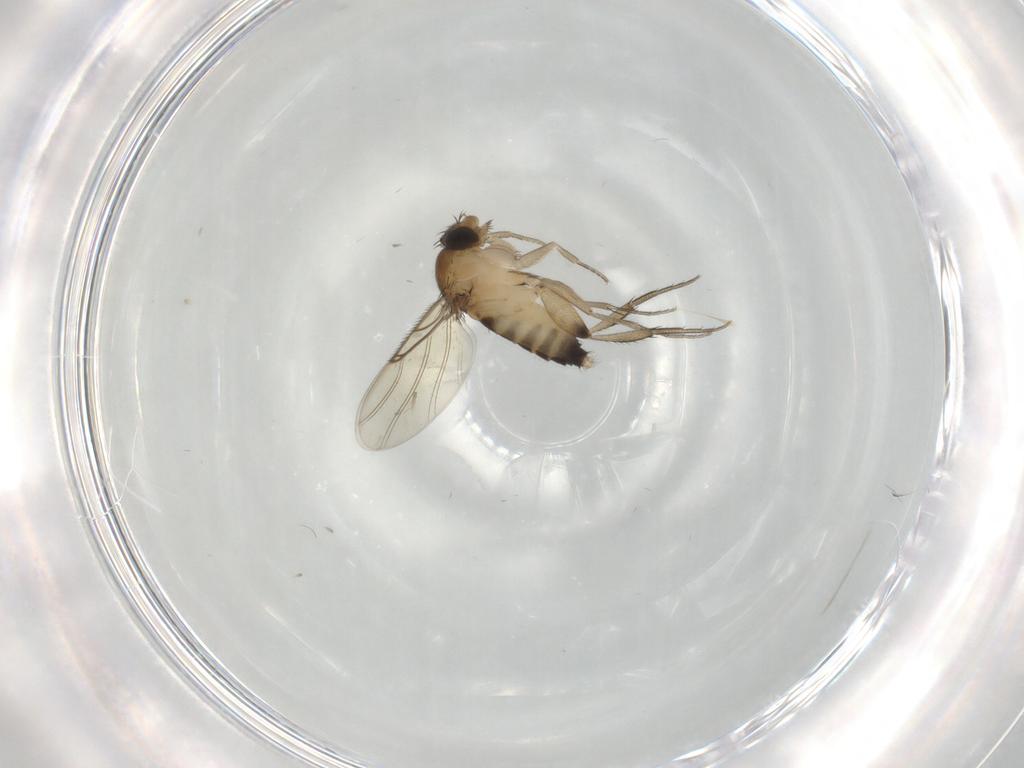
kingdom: Animalia
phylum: Arthropoda
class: Insecta
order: Diptera
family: Phoridae
